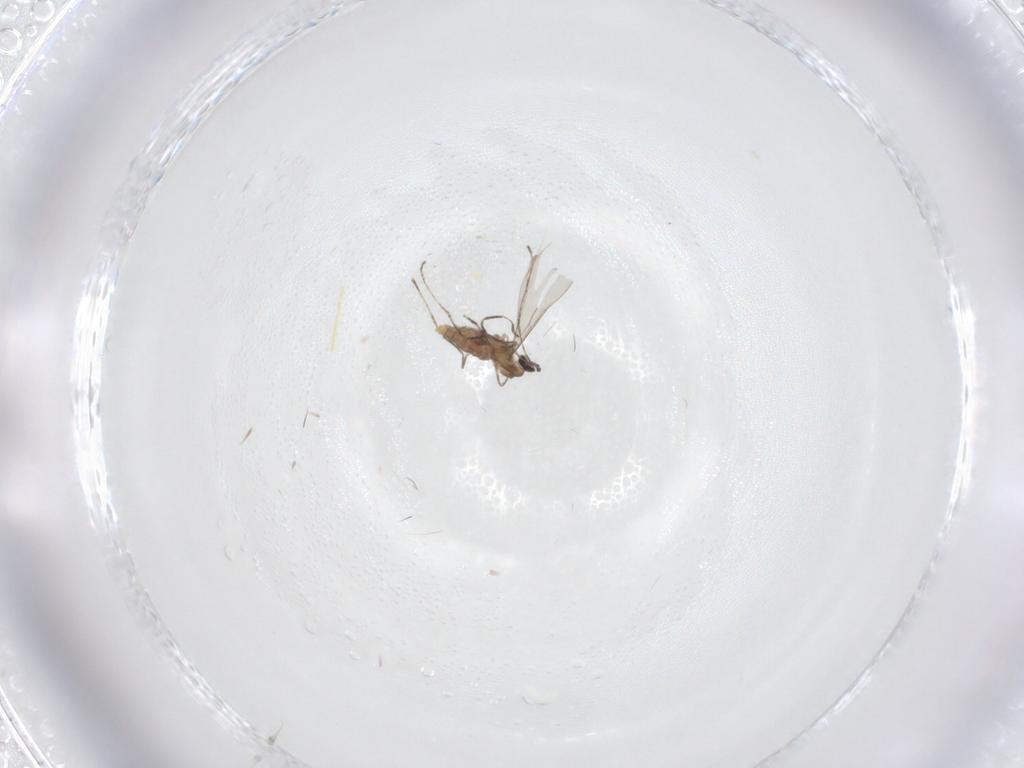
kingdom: Animalia
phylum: Arthropoda
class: Insecta
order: Diptera
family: Cecidomyiidae
